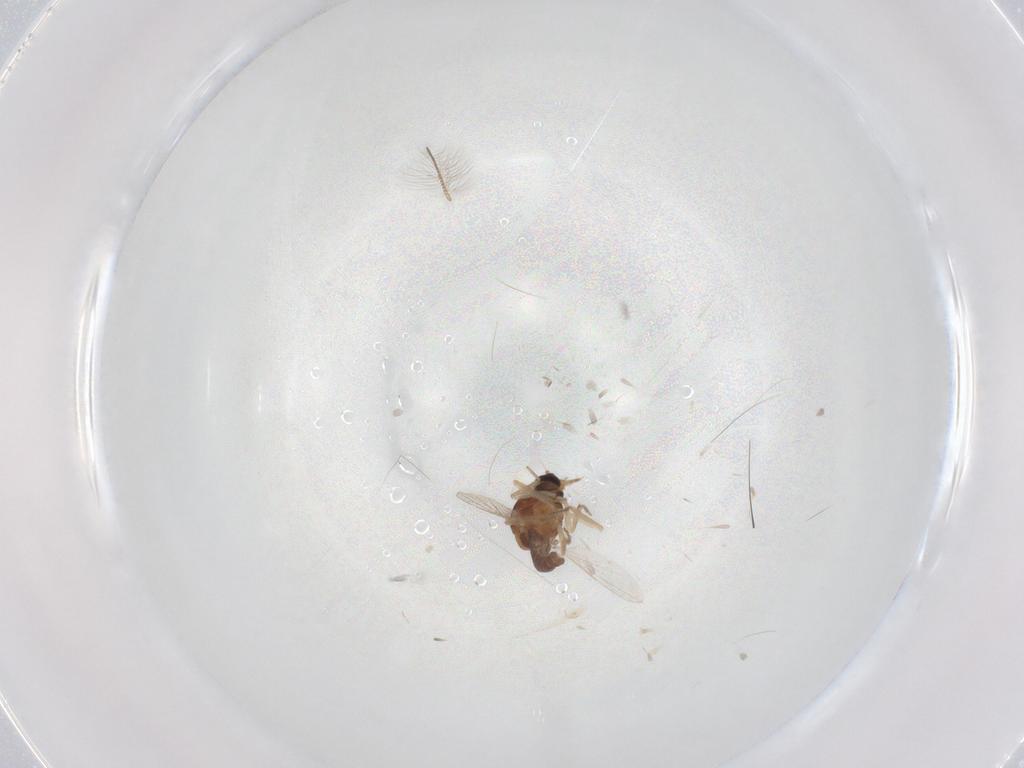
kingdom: Animalia
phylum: Arthropoda
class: Insecta
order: Diptera
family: Ceratopogonidae
